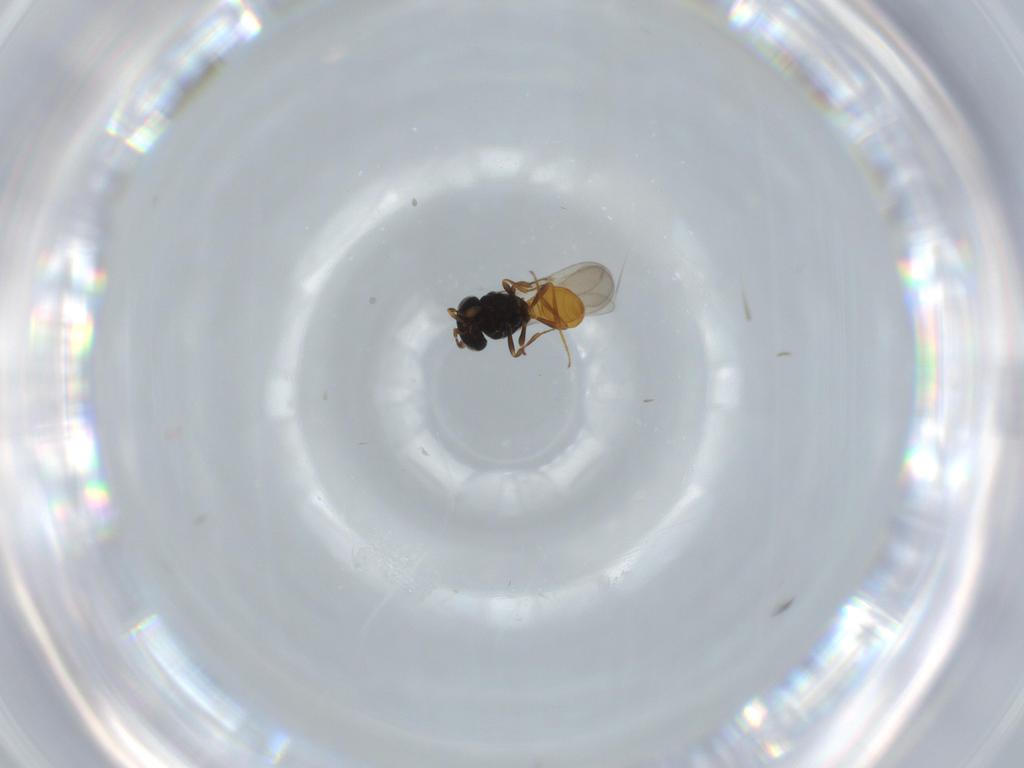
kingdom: Animalia
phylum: Arthropoda
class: Insecta
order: Hymenoptera
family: Scelionidae
